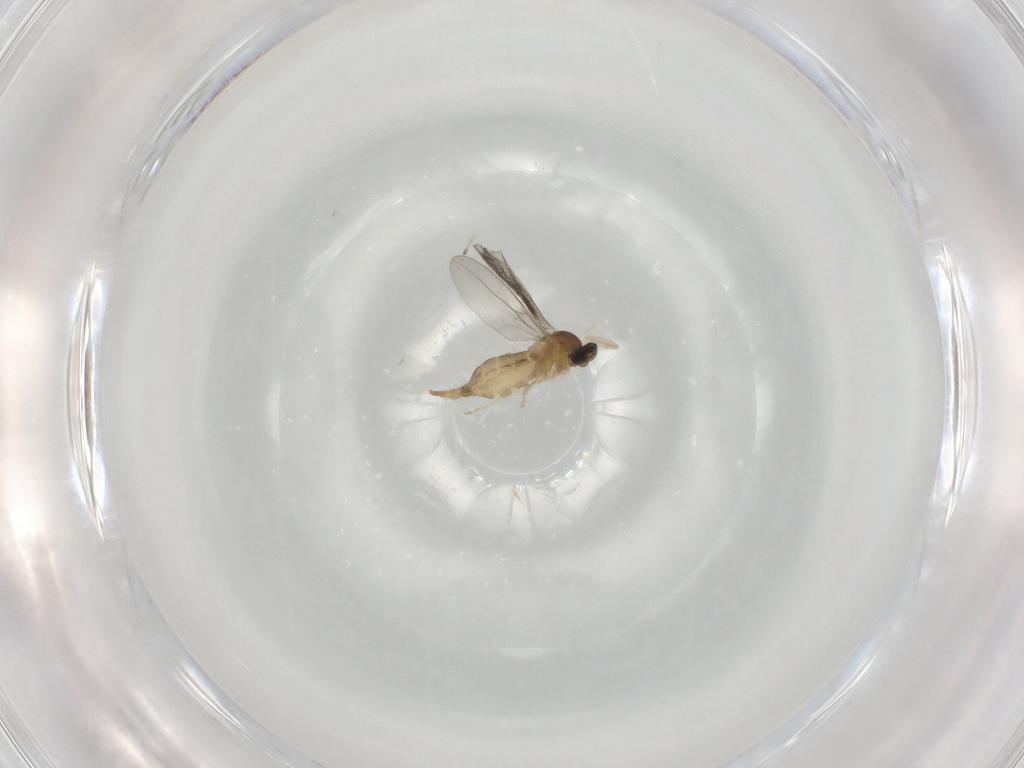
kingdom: Animalia
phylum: Arthropoda
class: Insecta
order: Diptera
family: Cecidomyiidae
